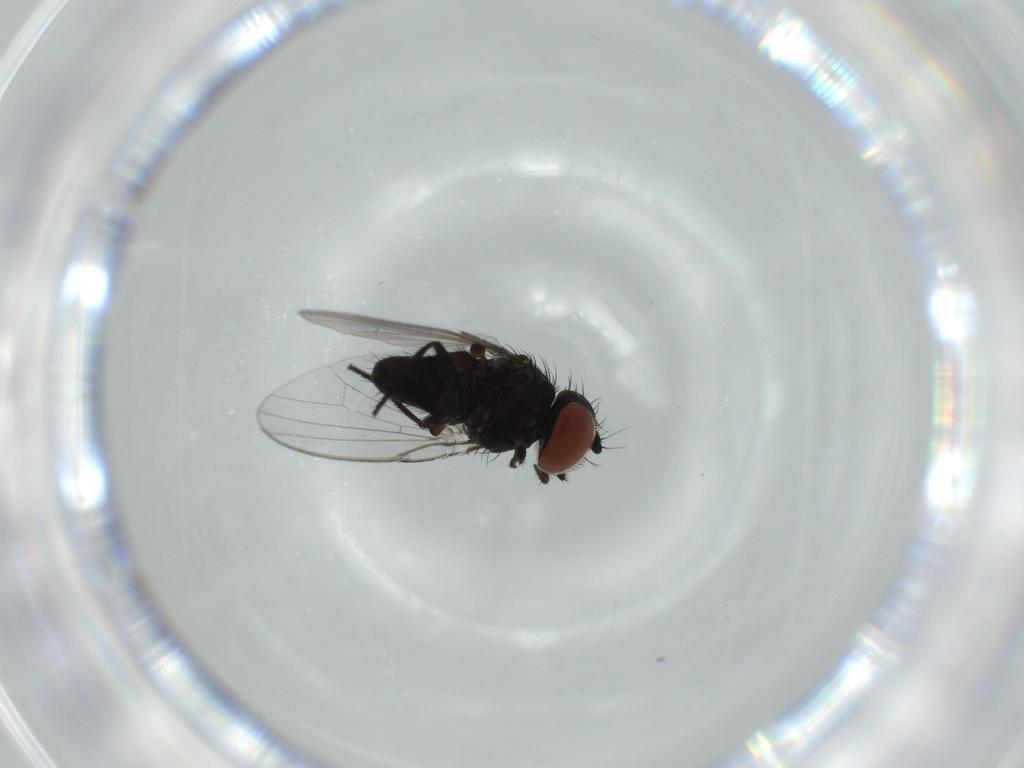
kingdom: Animalia
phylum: Arthropoda
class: Insecta
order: Diptera
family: Milichiidae
